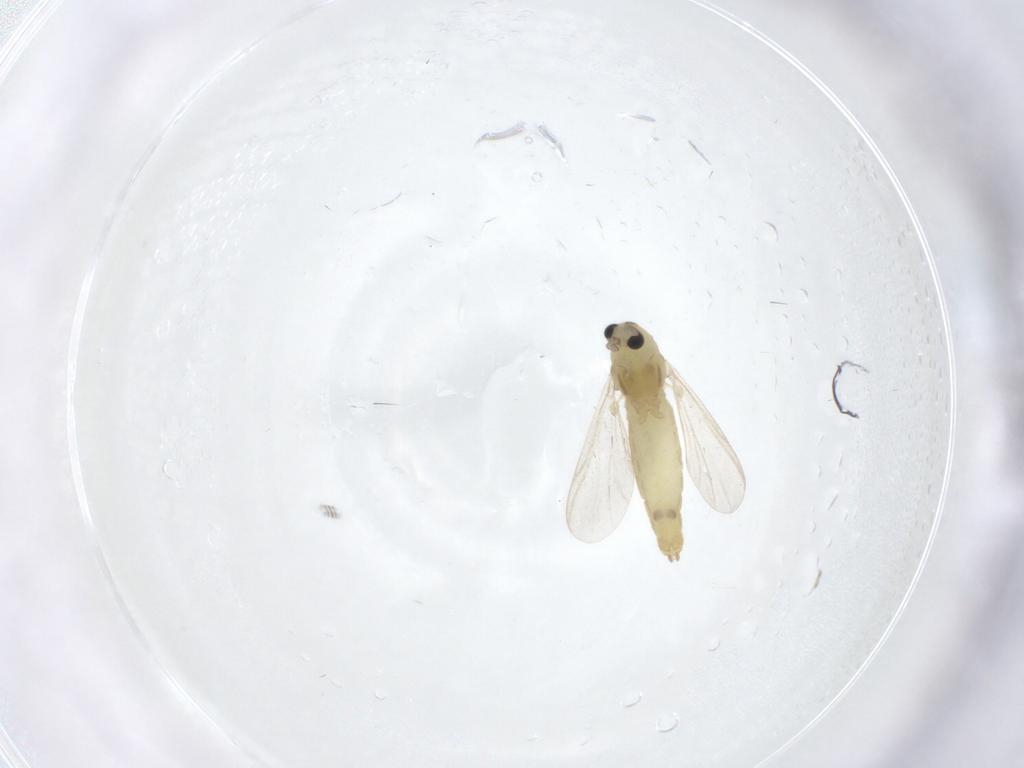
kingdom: Animalia
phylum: Arthropoda
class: Insecta
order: Diptera
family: Chironomidae
